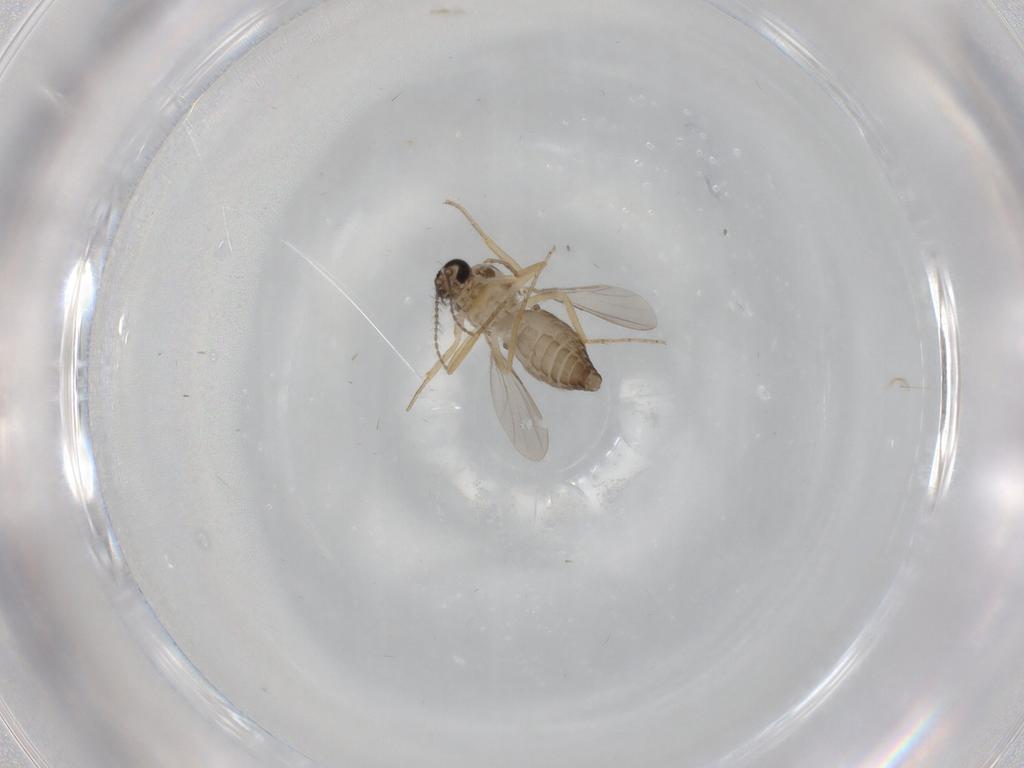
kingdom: Animalia
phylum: Arthropoda
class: Insecta
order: Diptera
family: Ceratopogonidae
